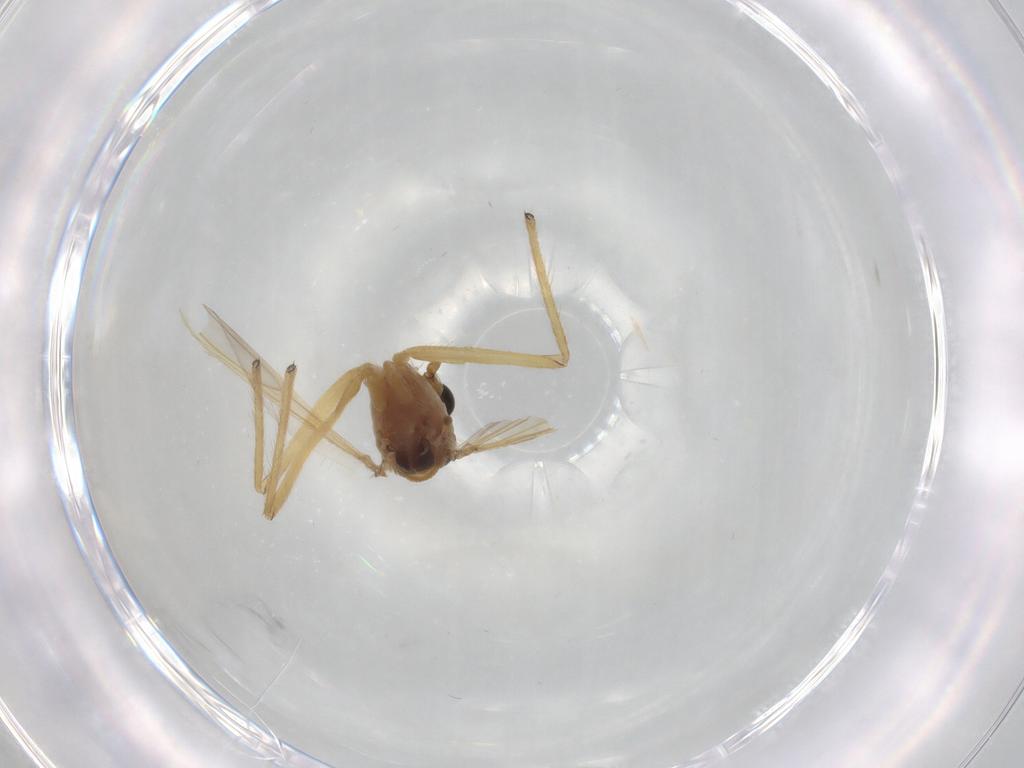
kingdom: Animalia
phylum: Arthropoda
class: Insecta
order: Diptera
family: Chironomidae
